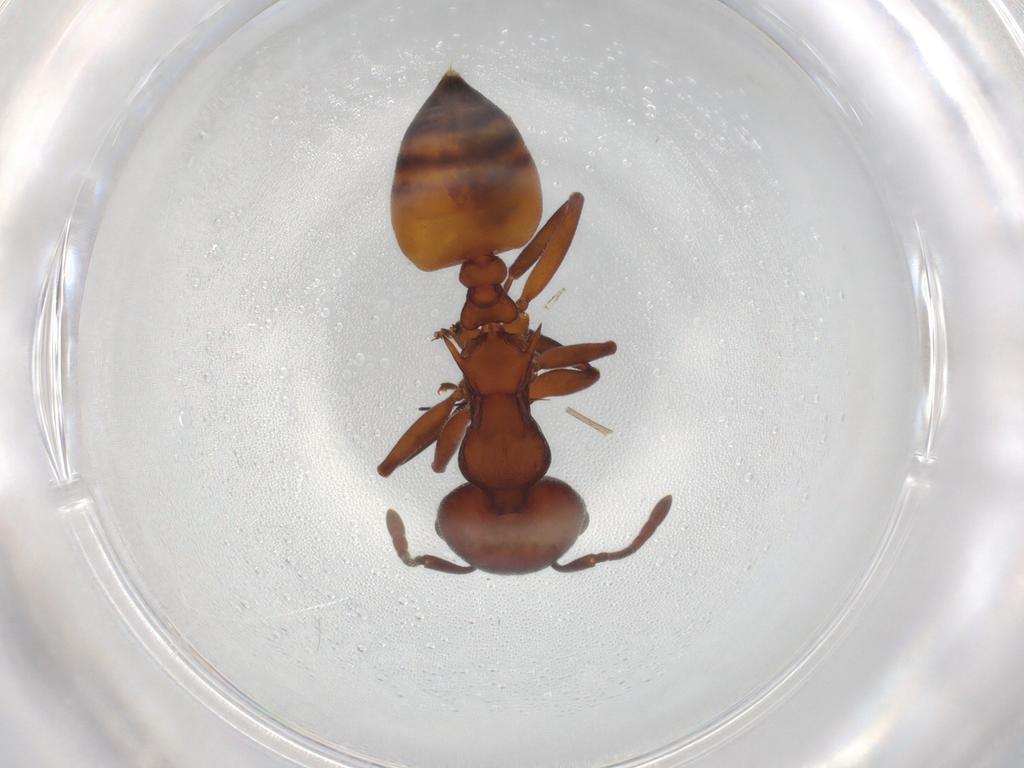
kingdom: Animalia
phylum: Arthropoda
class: Insecta
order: Hymenoptera
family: Formicidae
